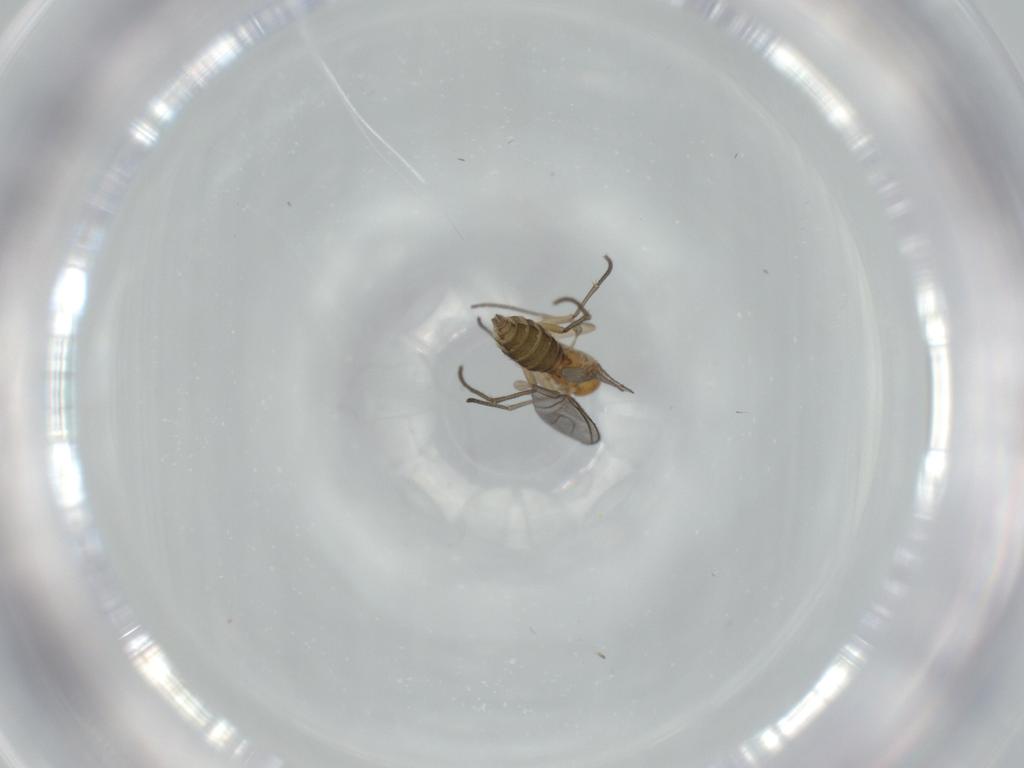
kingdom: Animalia
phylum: Arthropoda
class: Insecta
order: Diptera
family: Sciaridae
